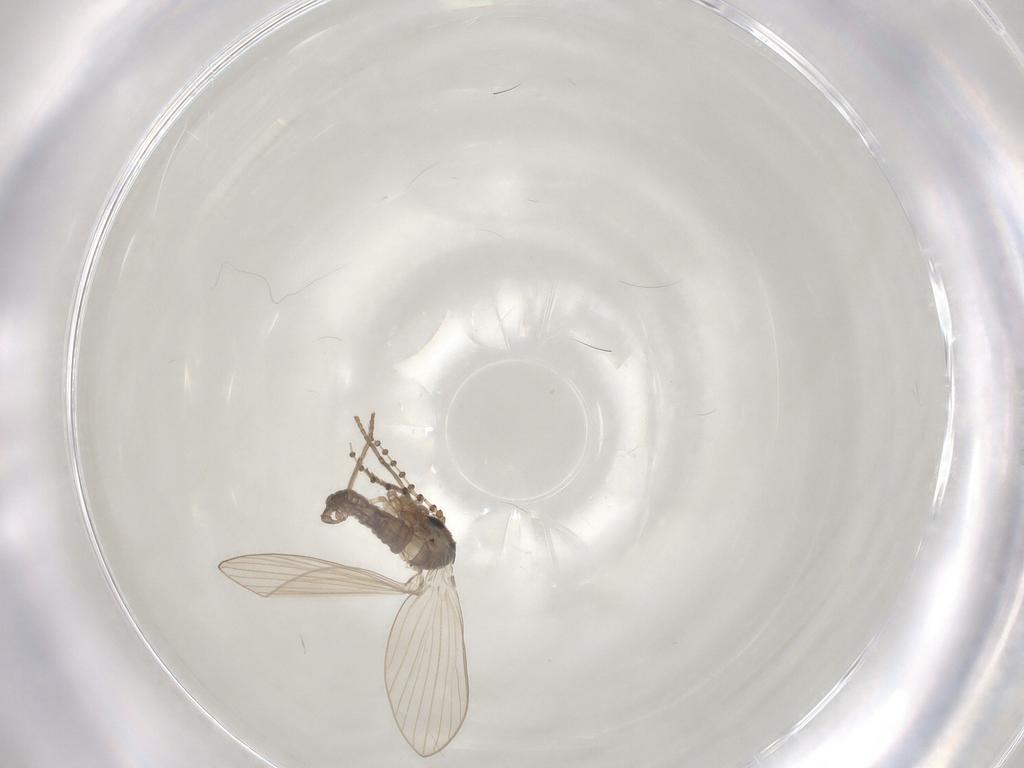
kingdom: Animalia
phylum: Arthropoda
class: Insecta
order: Diptera
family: Psychodidae
